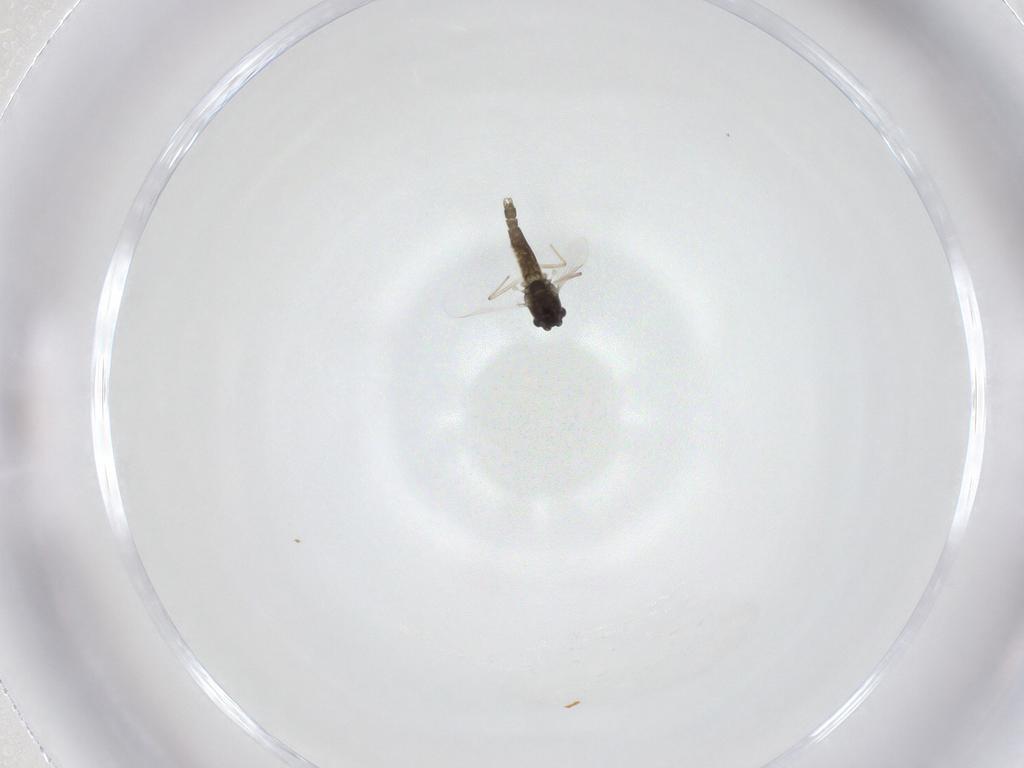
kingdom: Animalia
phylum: Arthropoda
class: Insecta
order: Diptera
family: Chironomidae
